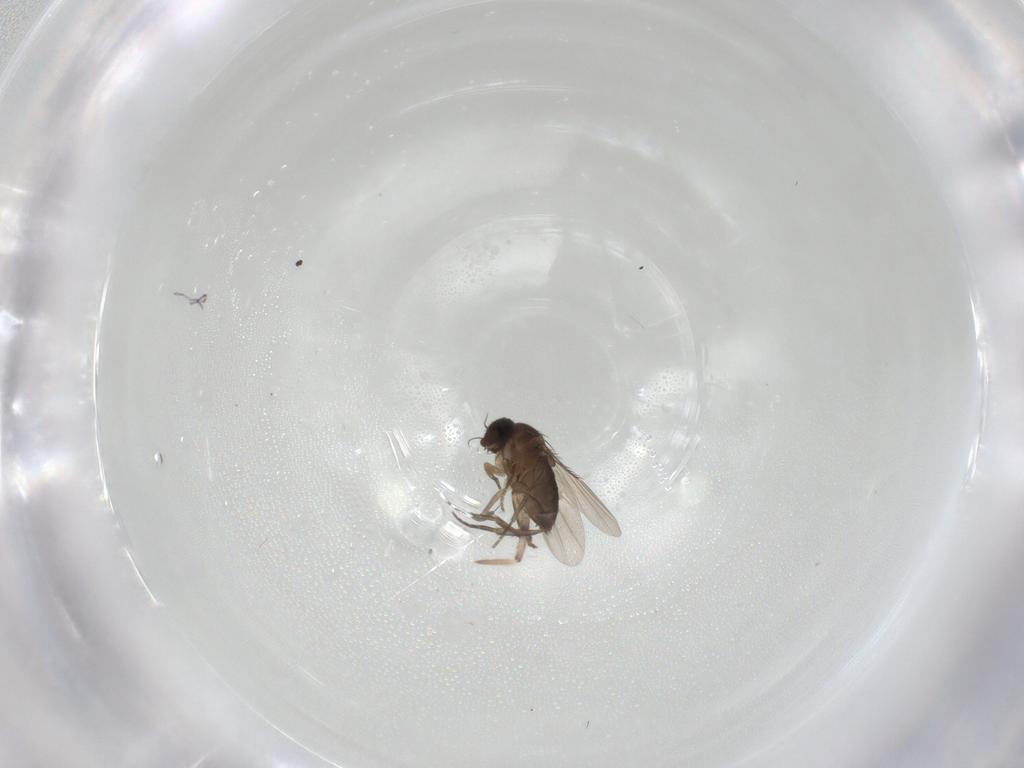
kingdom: Animalia
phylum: Arthropoda
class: Insecta
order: Diptera
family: Phoridae
